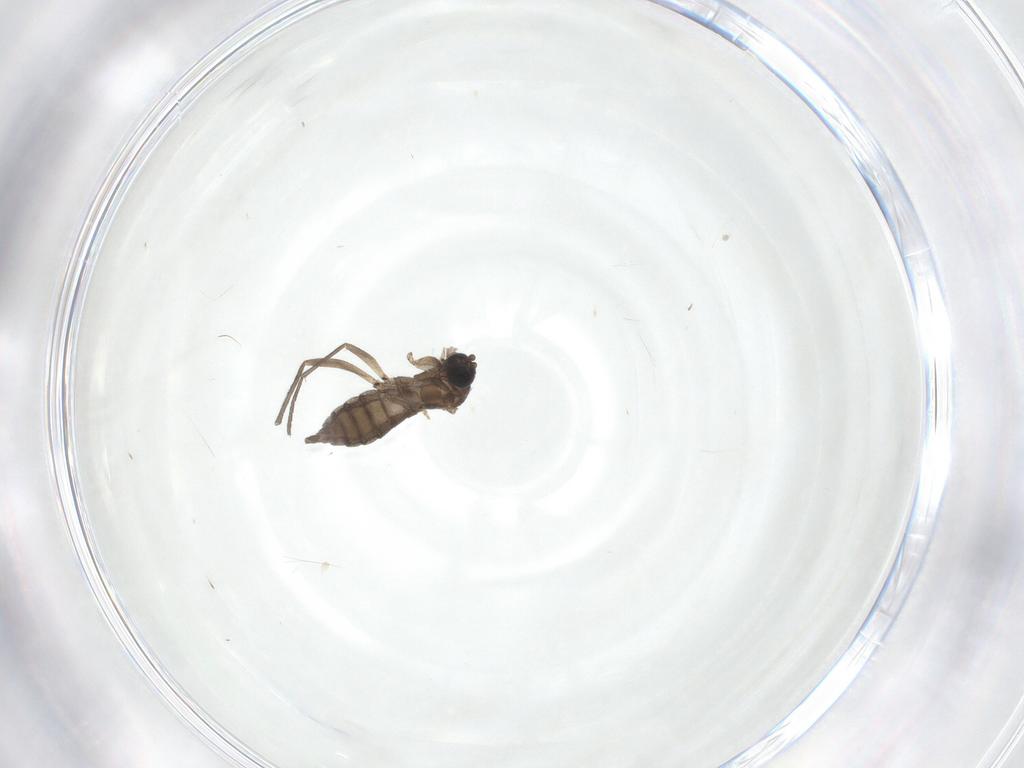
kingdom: Animalia
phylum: Arthropoda
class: Insecta
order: Diptera
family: Sciaridae
